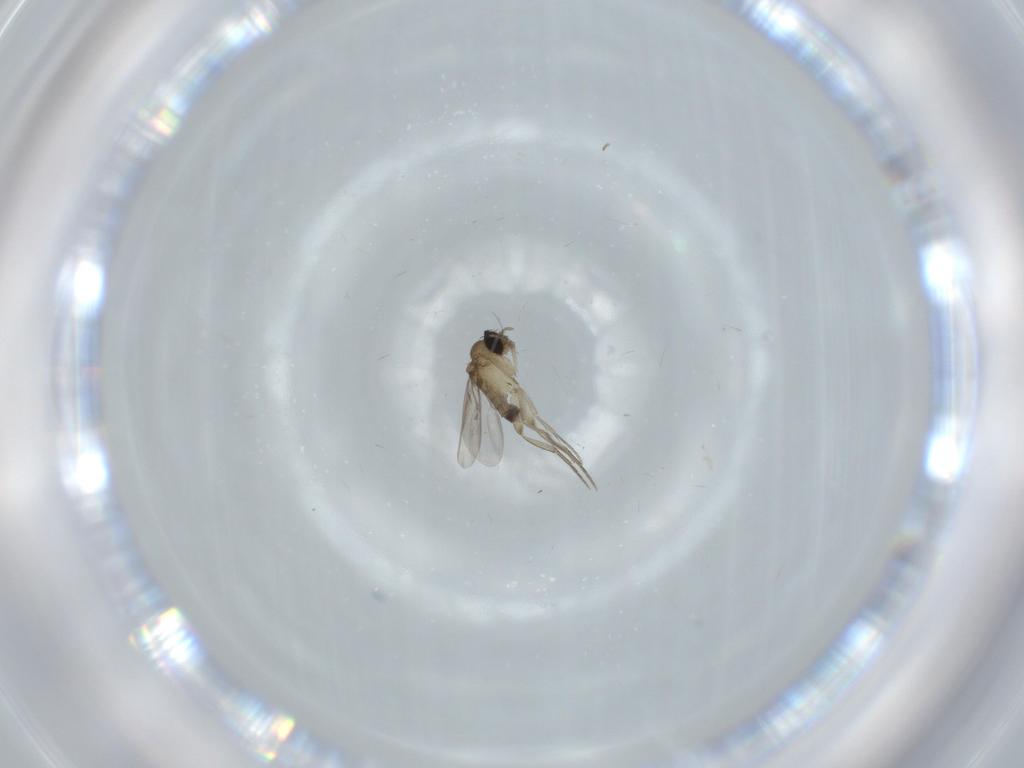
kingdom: Animalia
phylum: Arthropoda
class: Insecta
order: Diptera
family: Phoridae
